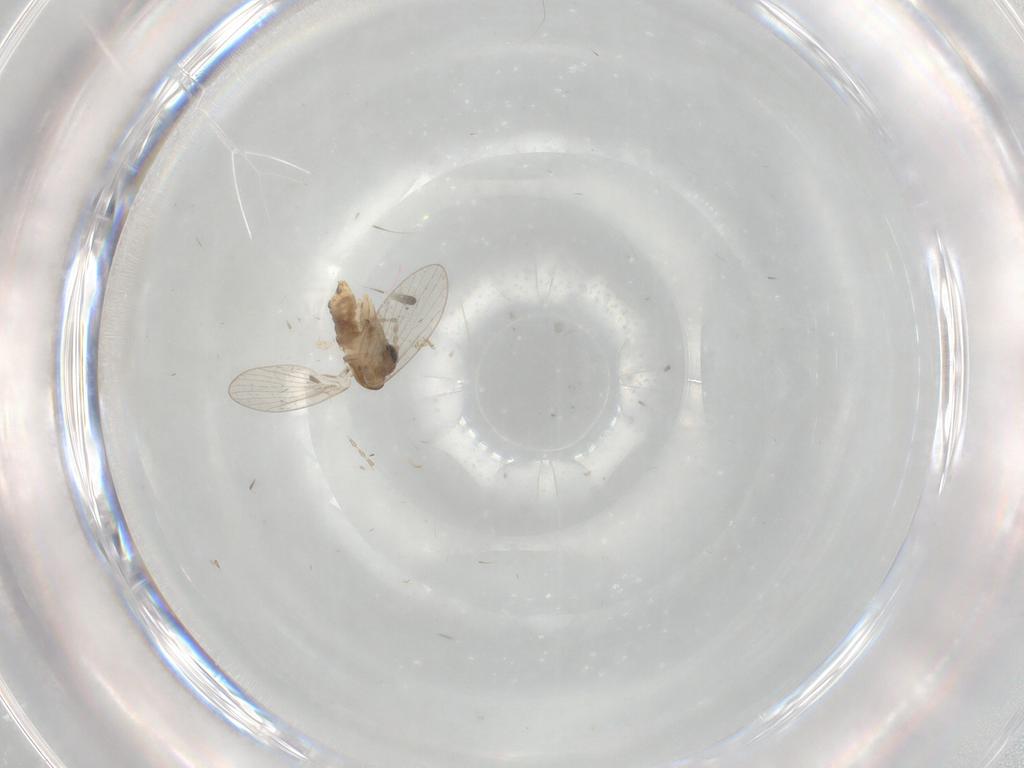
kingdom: Animalia
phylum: Arthropoda
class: Insecta
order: Diptera
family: Psychodidae
